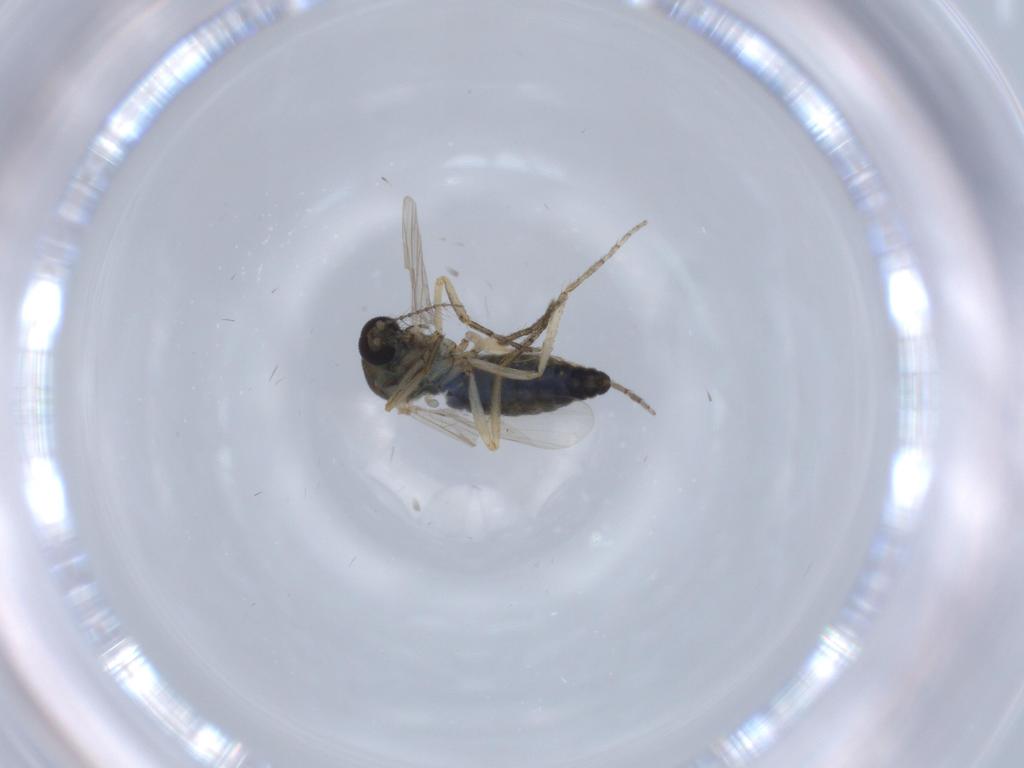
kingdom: Animalia
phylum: Arthropoda
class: Insecta
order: Diptera
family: Ceratopogonidae
